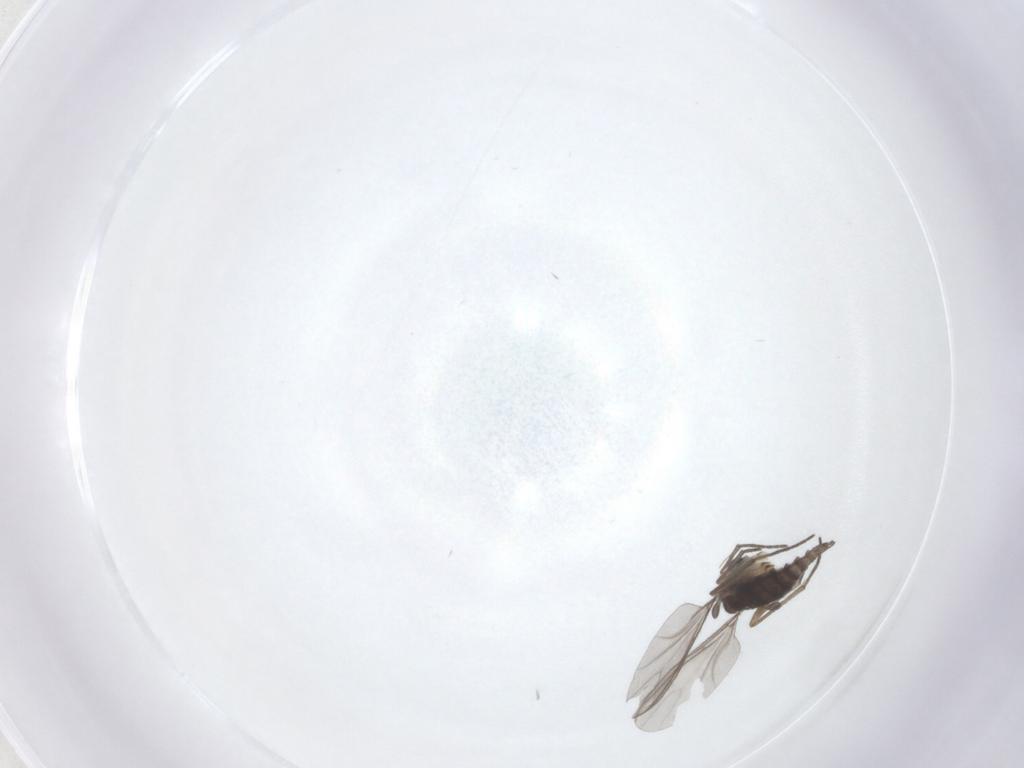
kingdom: Animalia
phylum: Arthropoda
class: Insecta
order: Diptera
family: Sciaridae
